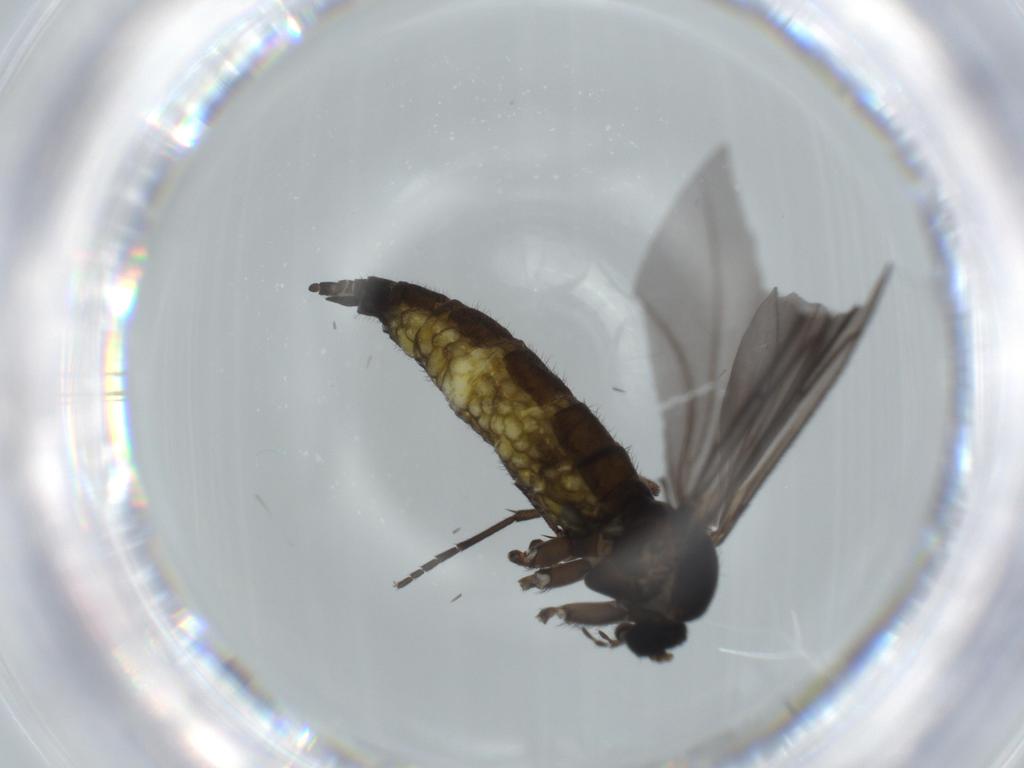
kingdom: Animalia
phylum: Arthropoda
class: Insecta
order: Diptera
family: Sciaridae
